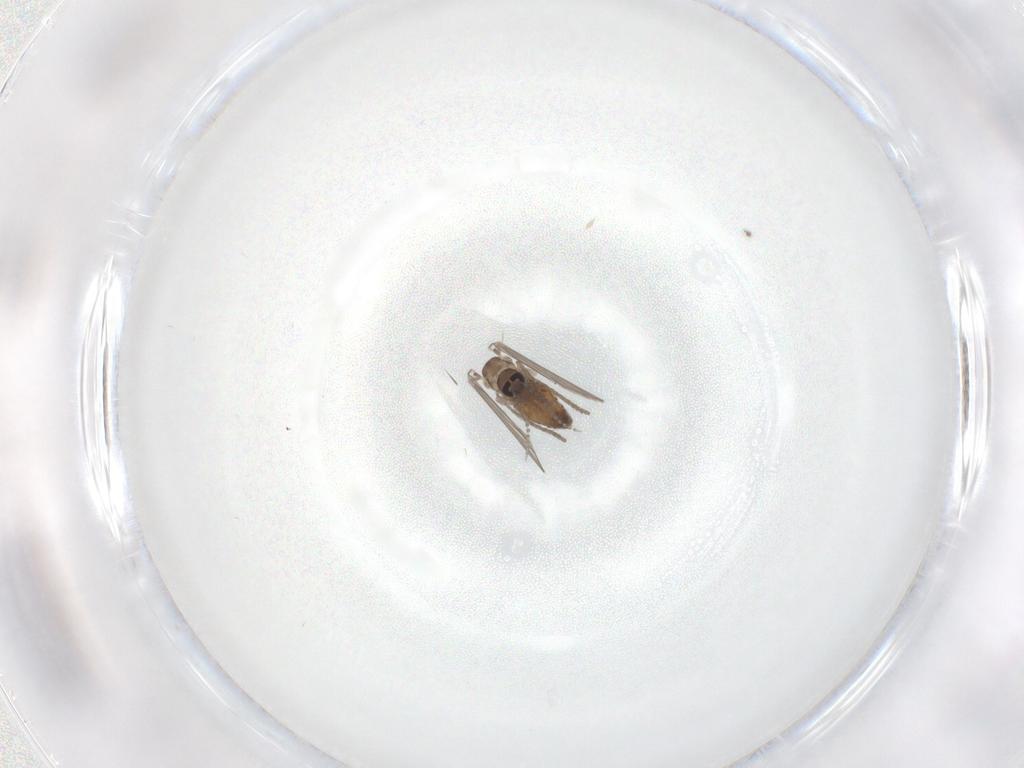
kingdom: Animalia
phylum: Arthropoda
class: Insecta
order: Diptera
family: Psychodidae
